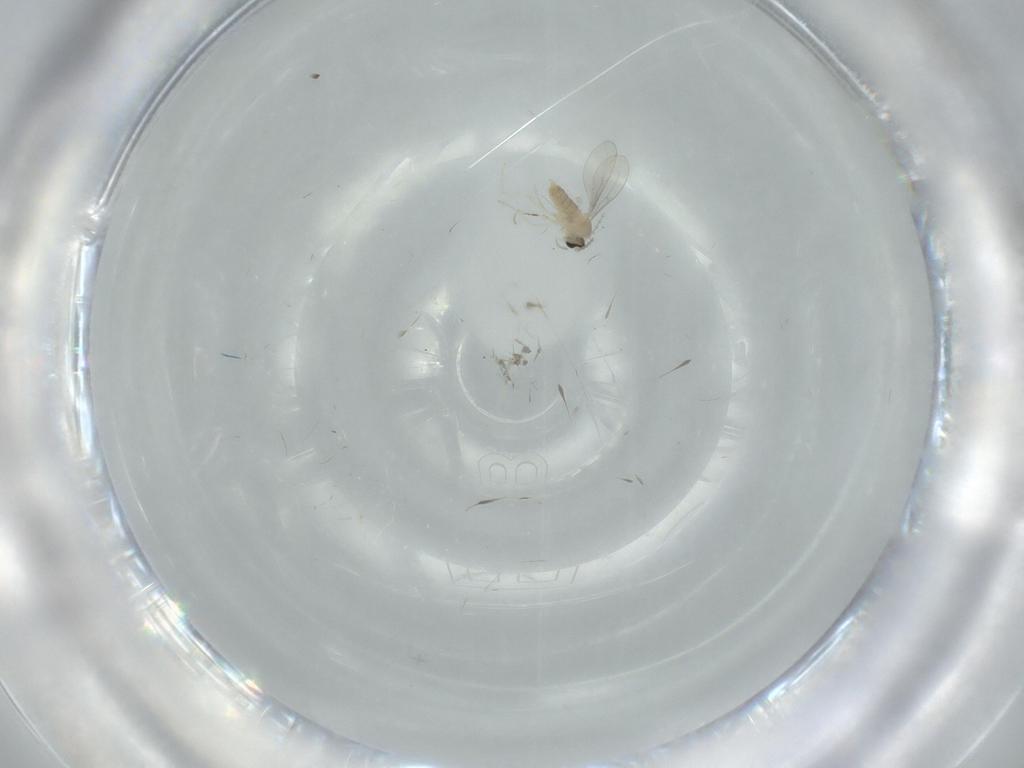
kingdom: Animalia
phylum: Arthropoda
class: Insecta
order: Diptera
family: Cecidomyiidae
